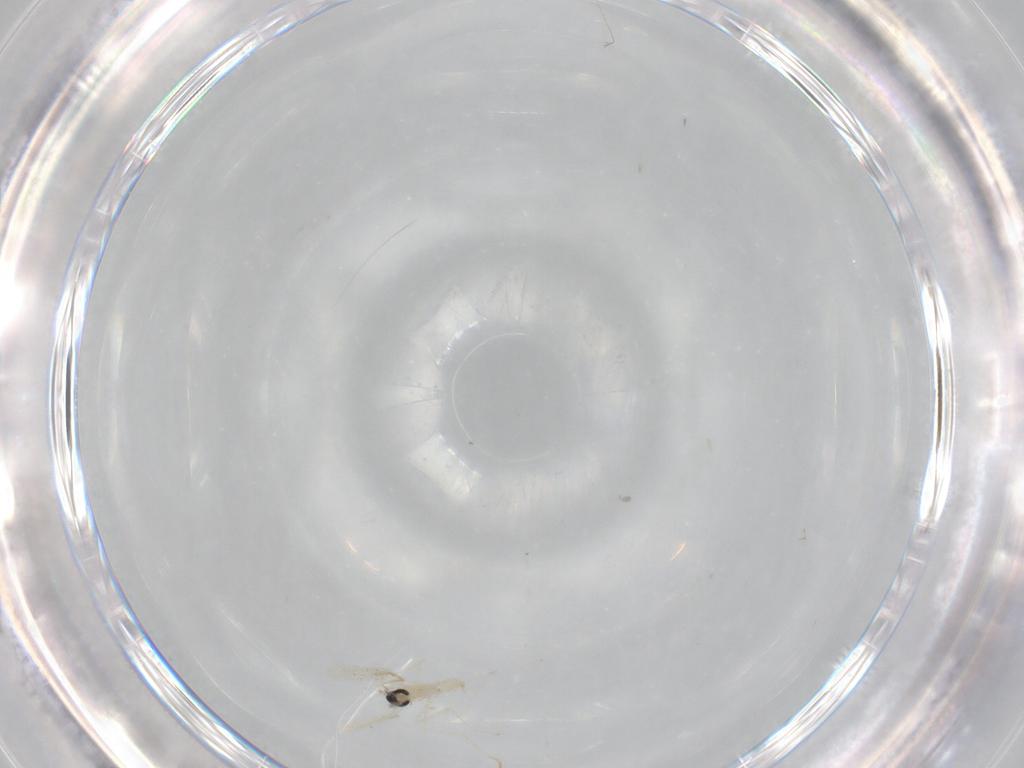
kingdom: Animalia
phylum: Arthropoda
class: Insecta
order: Diptera
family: Cecidomyiidae
